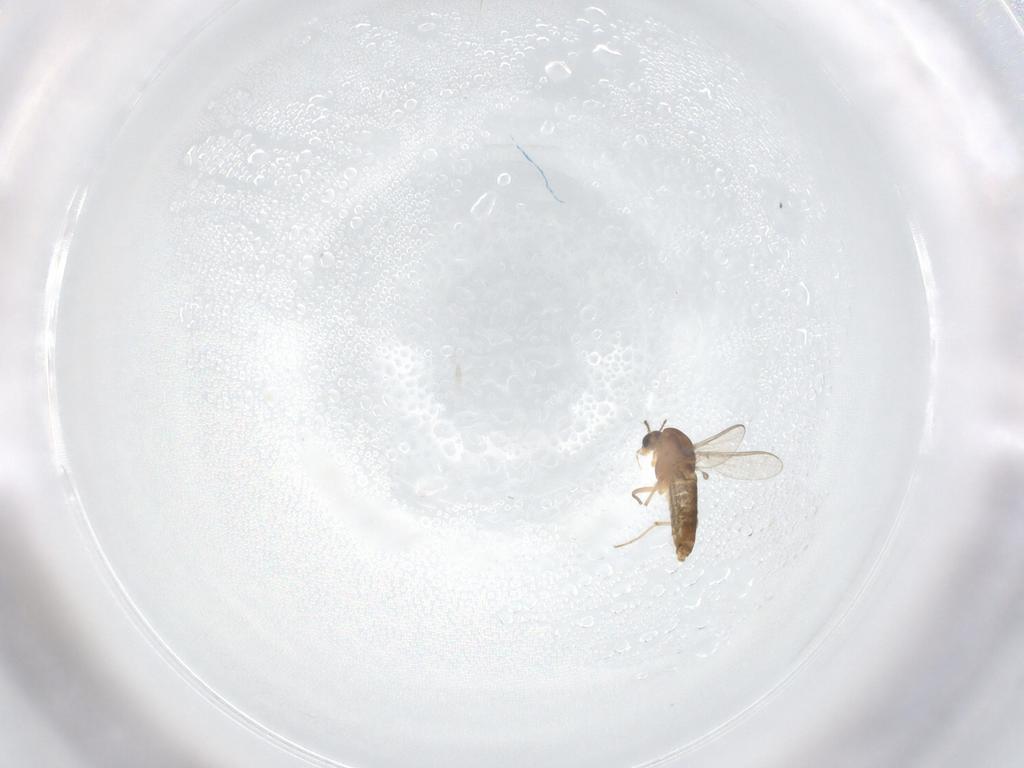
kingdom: Animalia
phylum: Arthropoda
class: Insecta
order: Diptera
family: Chironomidae
